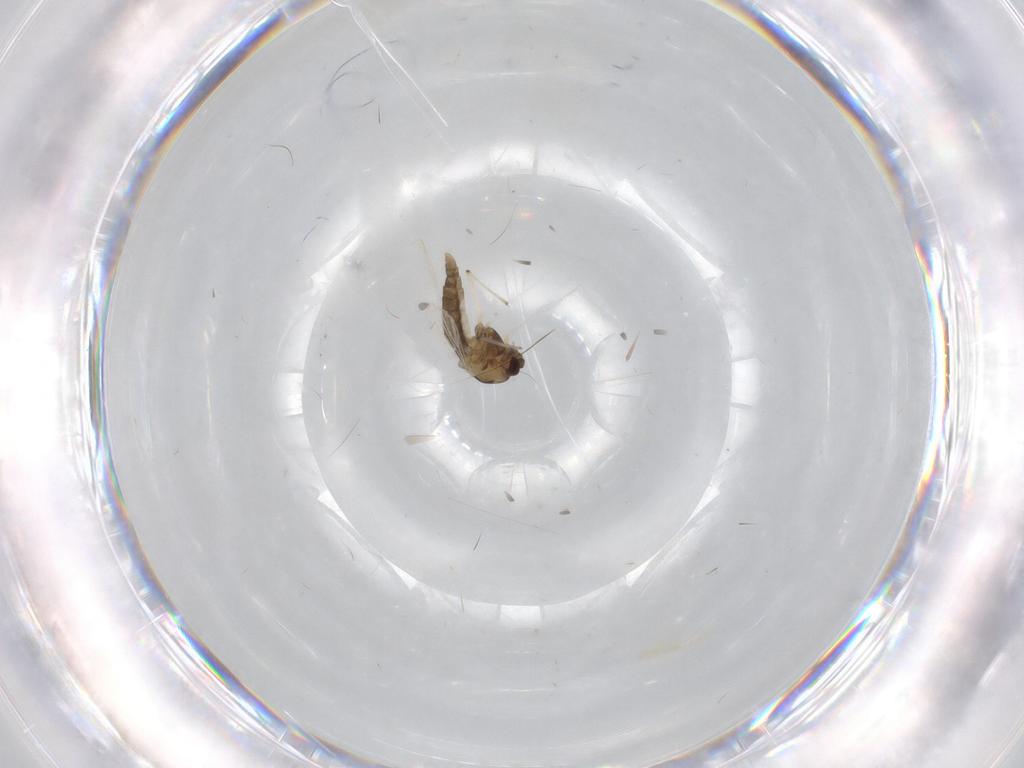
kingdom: Animalia
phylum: Arthropoda
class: Insecta
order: Diptera
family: Chironomidae
